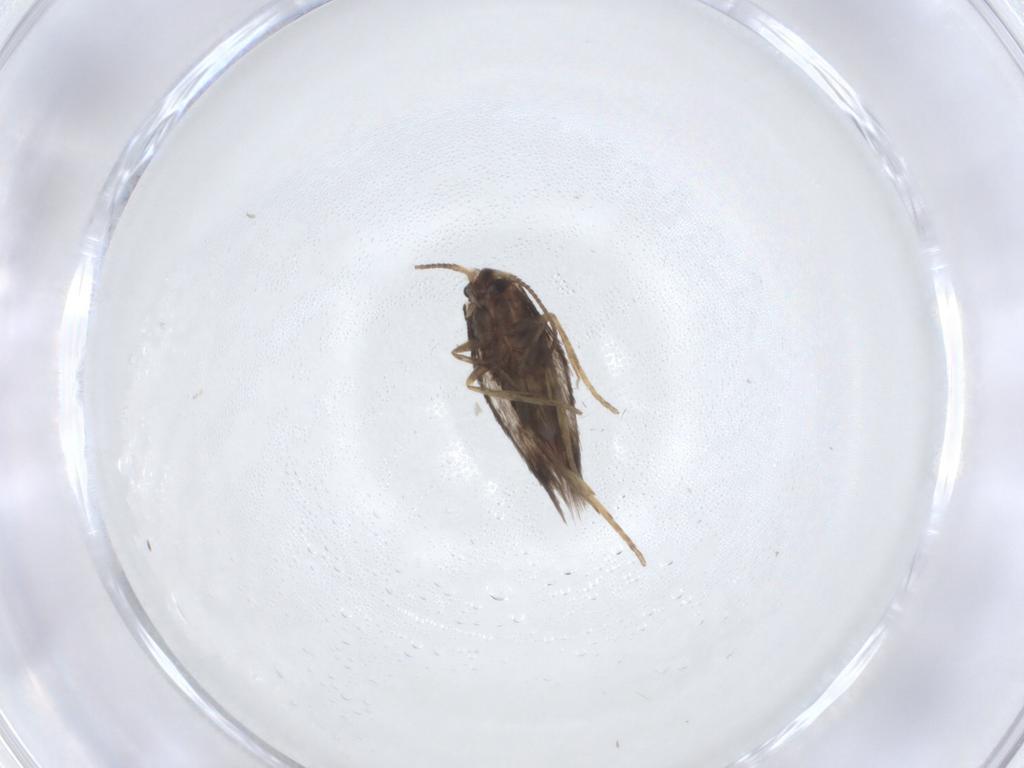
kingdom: Animalia
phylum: Arthropoda
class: Insecta
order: Lepidoptera
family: Nepticulidae
